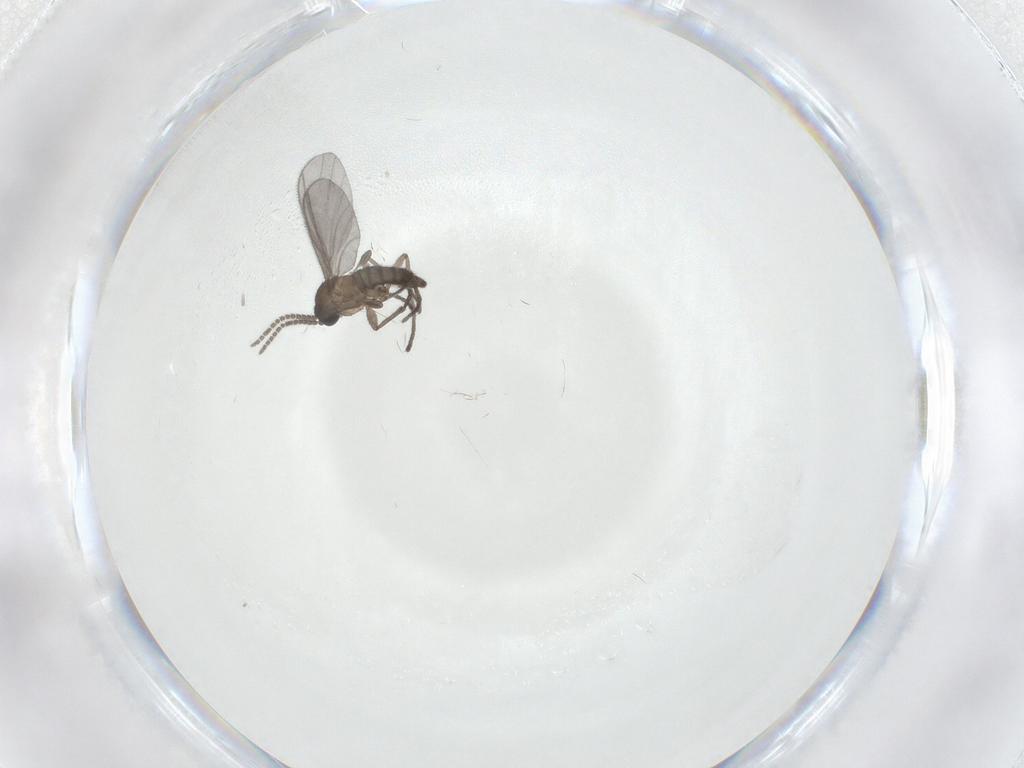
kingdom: Animalia
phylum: Arthropoda
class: Insecta
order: Diptera
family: Sciaridae
